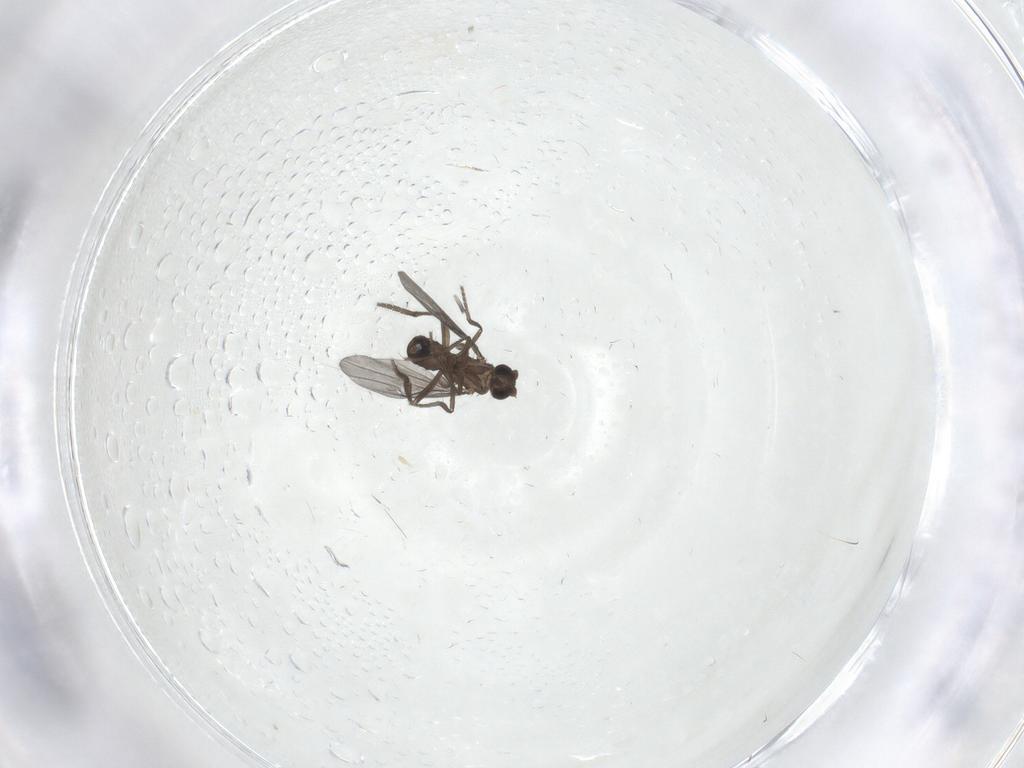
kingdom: Animalia
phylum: Arthropoda
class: Insecta
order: Diptera
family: Phoridae
